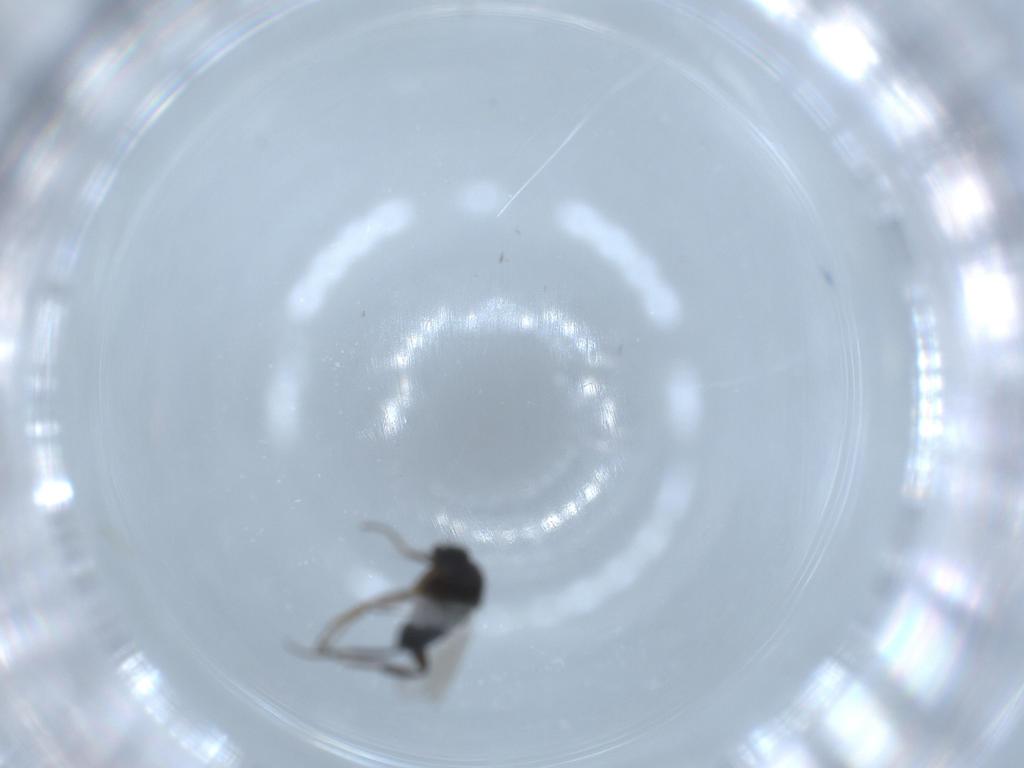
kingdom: Animalia
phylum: Arthropoda
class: Insecta
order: Diptera
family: Phoridae
